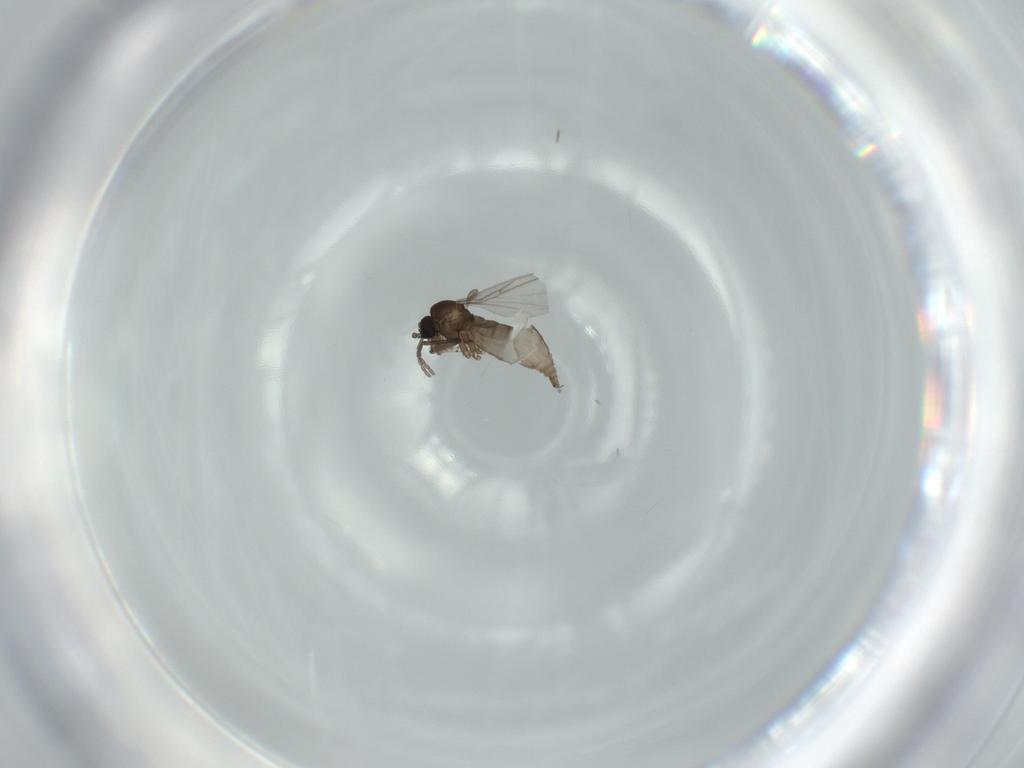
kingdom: Animalia
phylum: Arthropoda
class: Insecta
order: Diptera
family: Sciaridae
